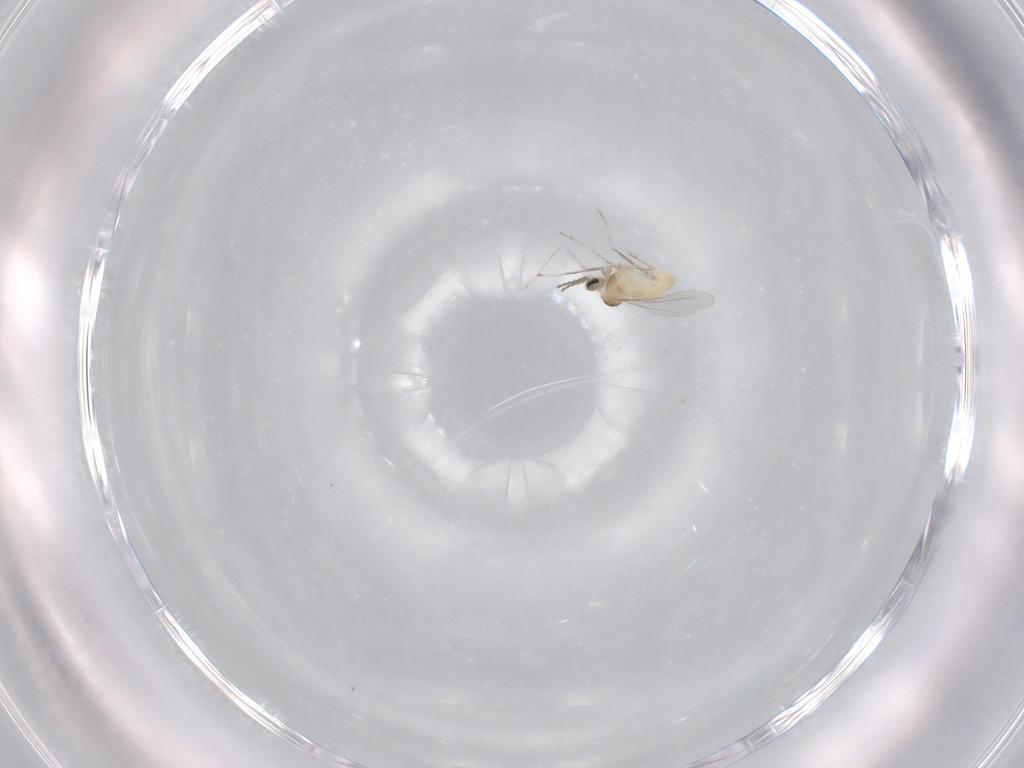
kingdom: Animalia
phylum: Arthropoda
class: Insecta
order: Diptera
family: Cecidomyiidae
